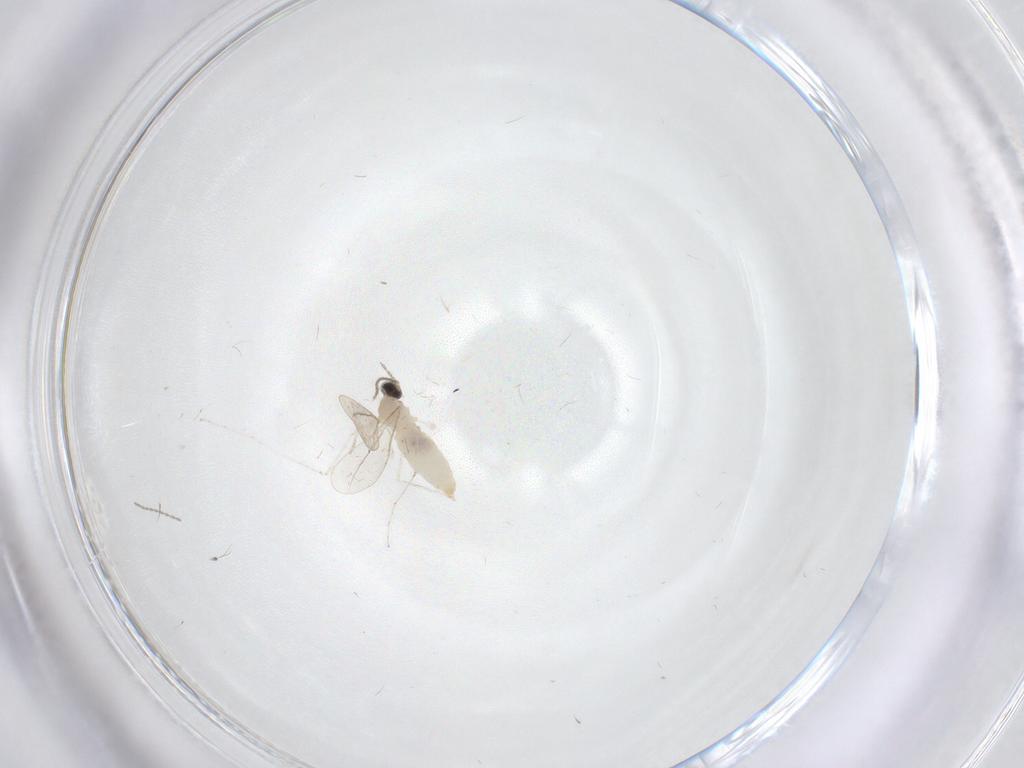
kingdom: Animalia
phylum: Arthropoda
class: Insecta
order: Diptera
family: Cecidomyiidae
